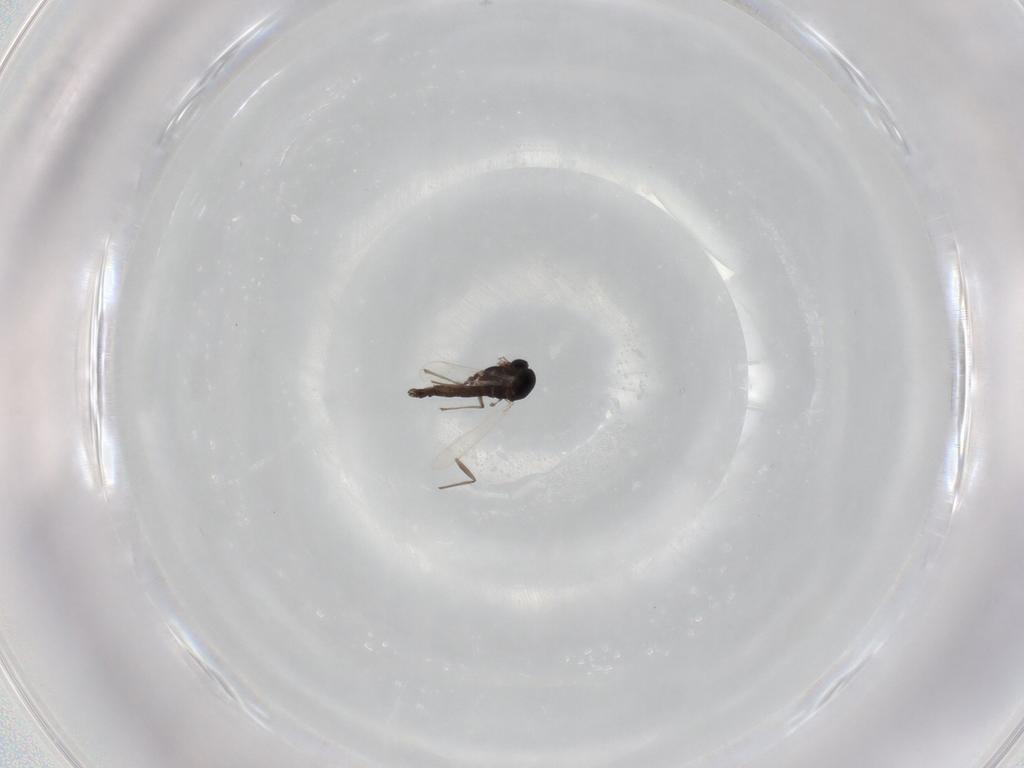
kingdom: Animalia
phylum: Arthropoda
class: Insecta
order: Diptera
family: Chironomidae
